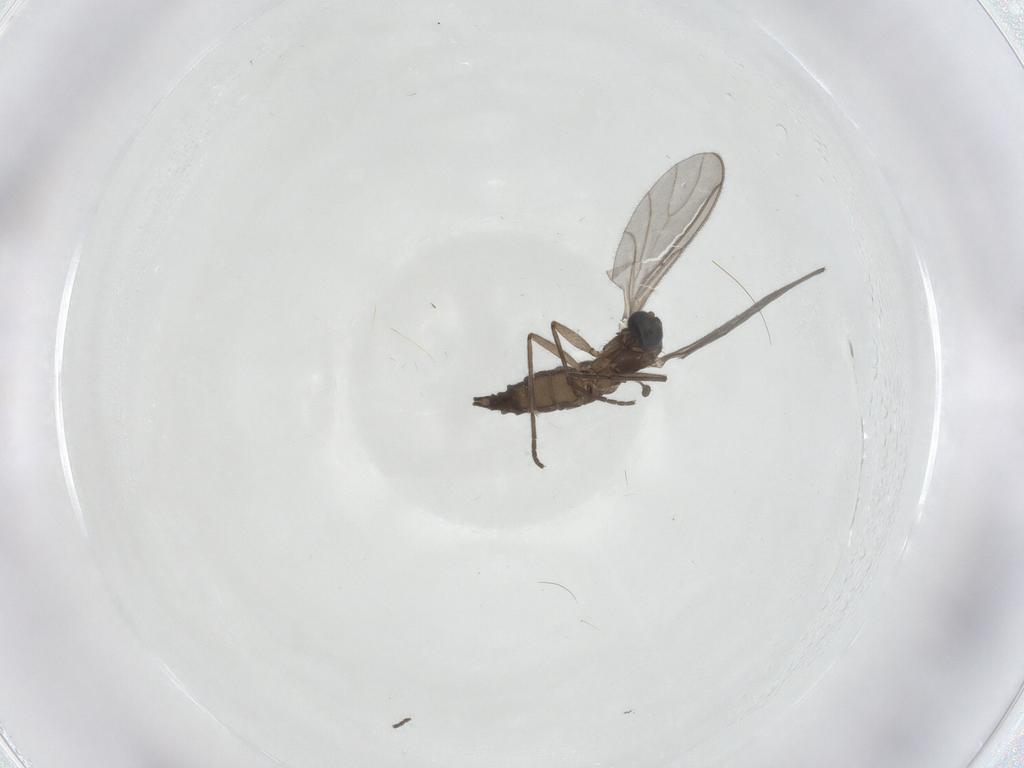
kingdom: Animalia
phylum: Arthropoda
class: Insecta
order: Diptera
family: Sciaridae
